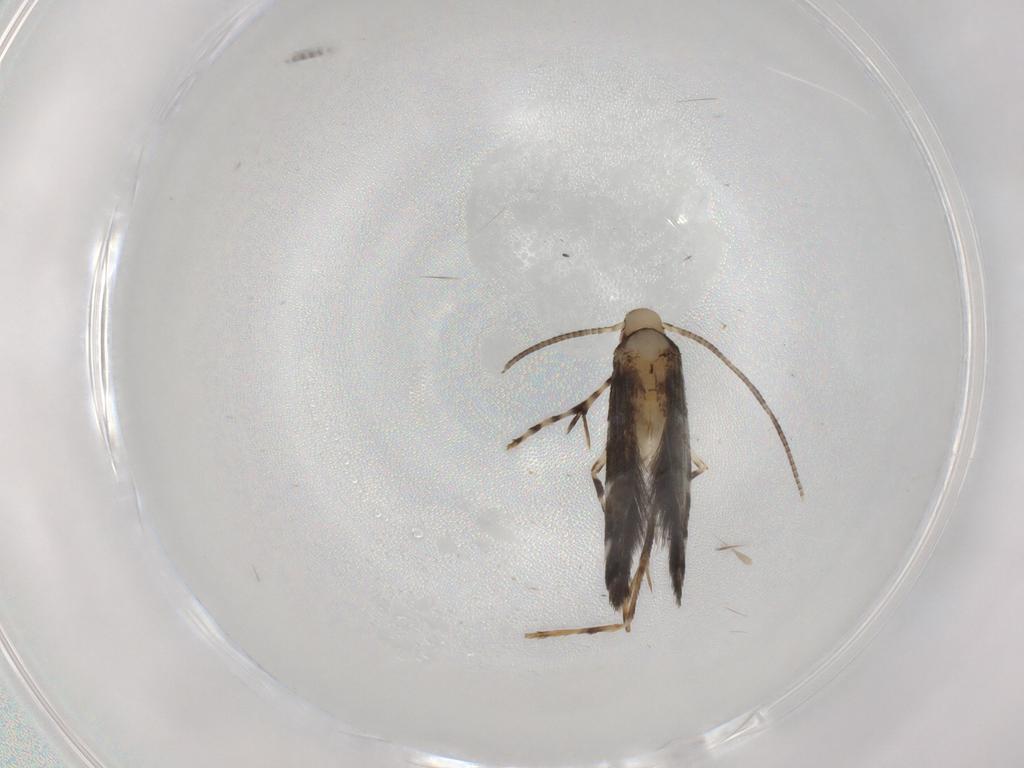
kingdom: Animalia
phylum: Arthropoda
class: Insecta
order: Lepidoptera
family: Gracillariidae
